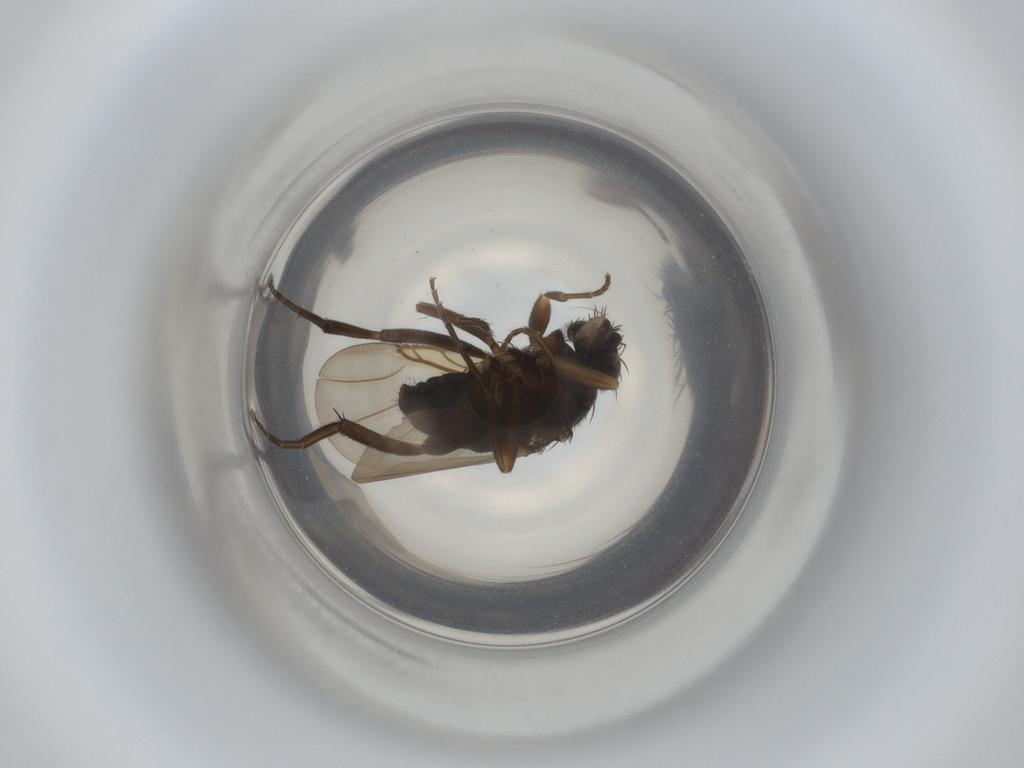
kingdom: Animalia
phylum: Arthropoda
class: Insecta
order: Diptera
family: Phoridae
